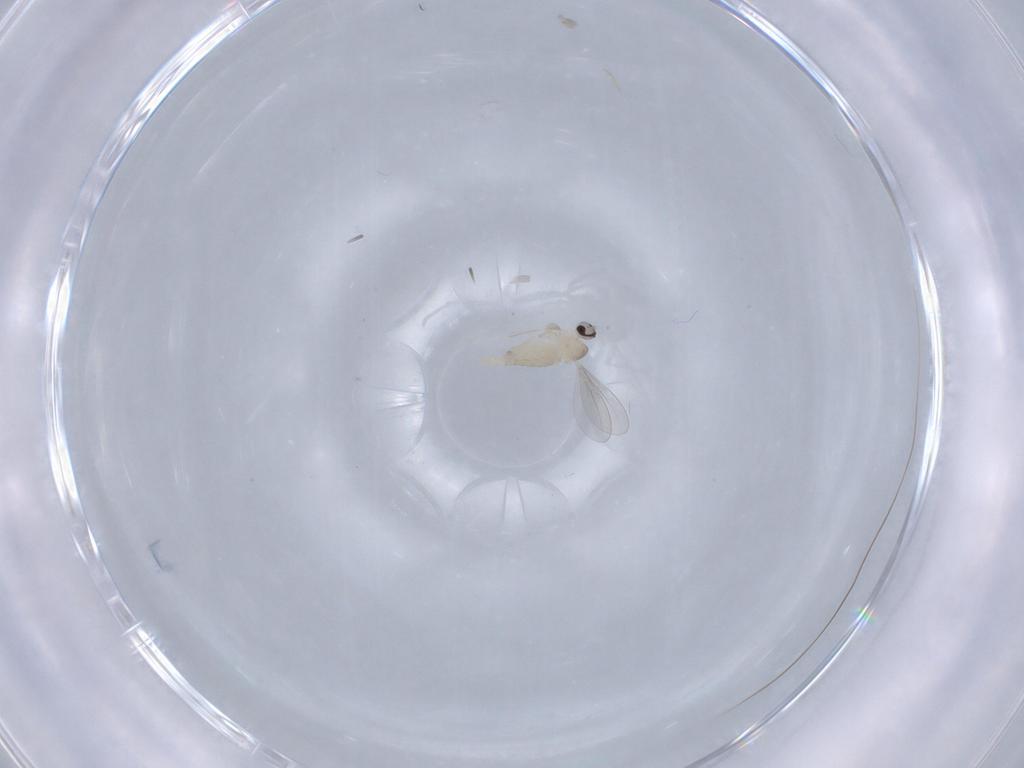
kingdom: Animalia
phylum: Arthropoda
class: Insecta
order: Diptera
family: Cecidomyiidae
